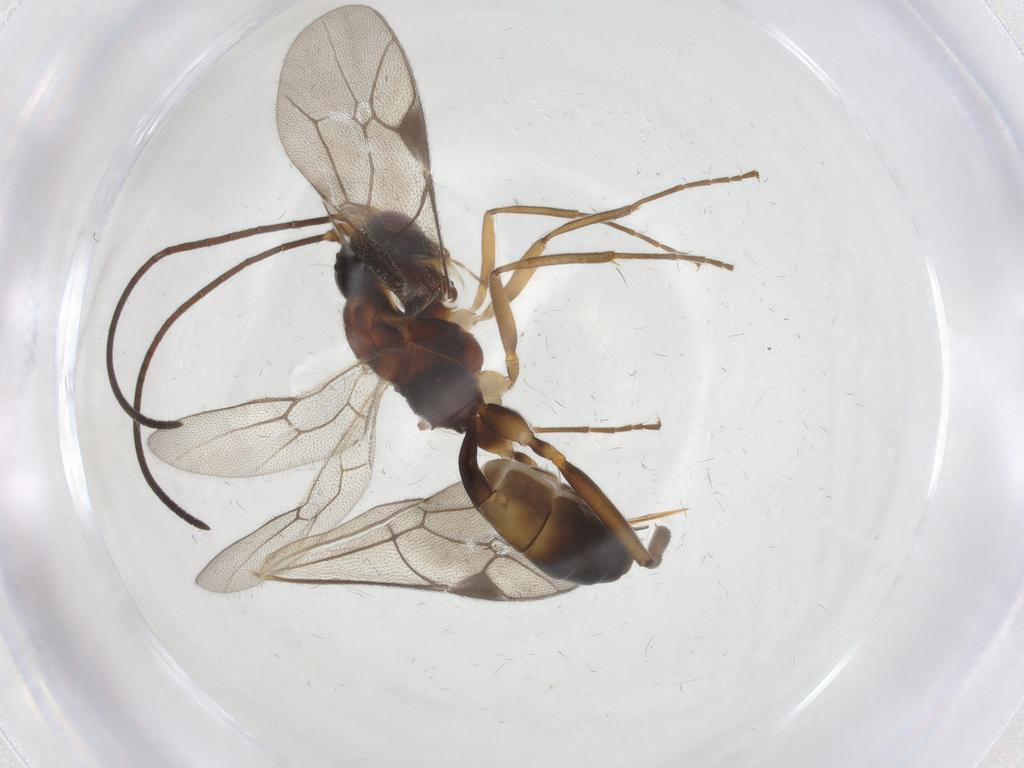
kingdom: Animalia
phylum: Arthropoda
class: Insecta
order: Hymenoptera
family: Ichneumonidae
